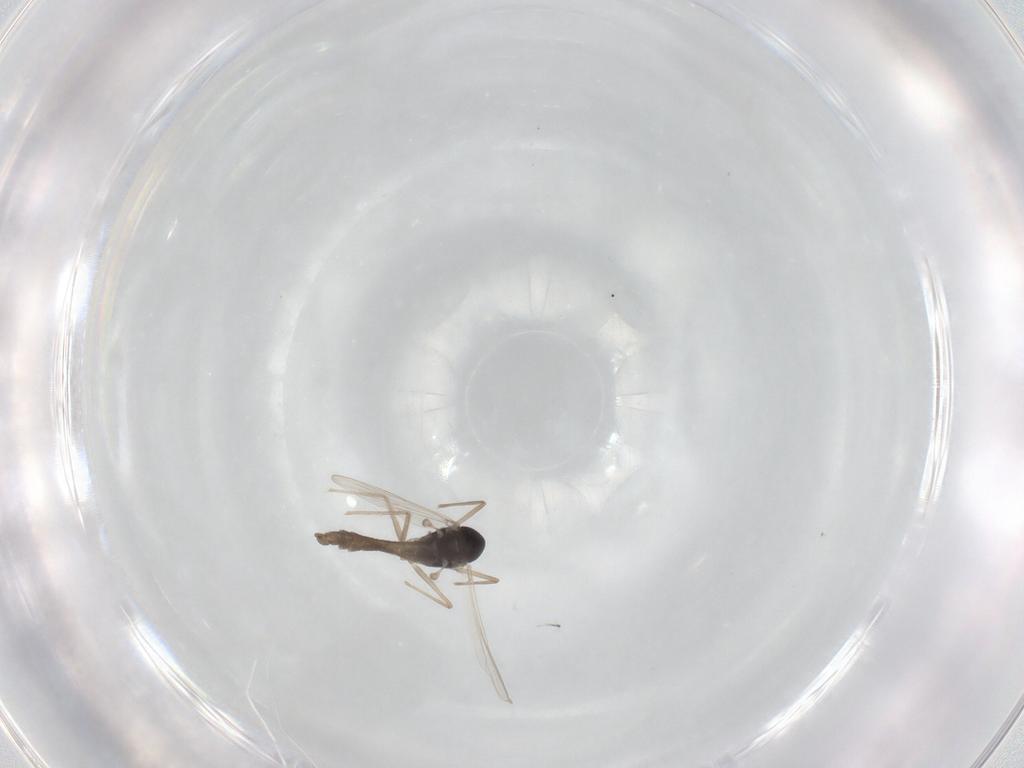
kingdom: Animalia
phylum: Arthropoda
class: Insecta
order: Diptera
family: Chironomidae
